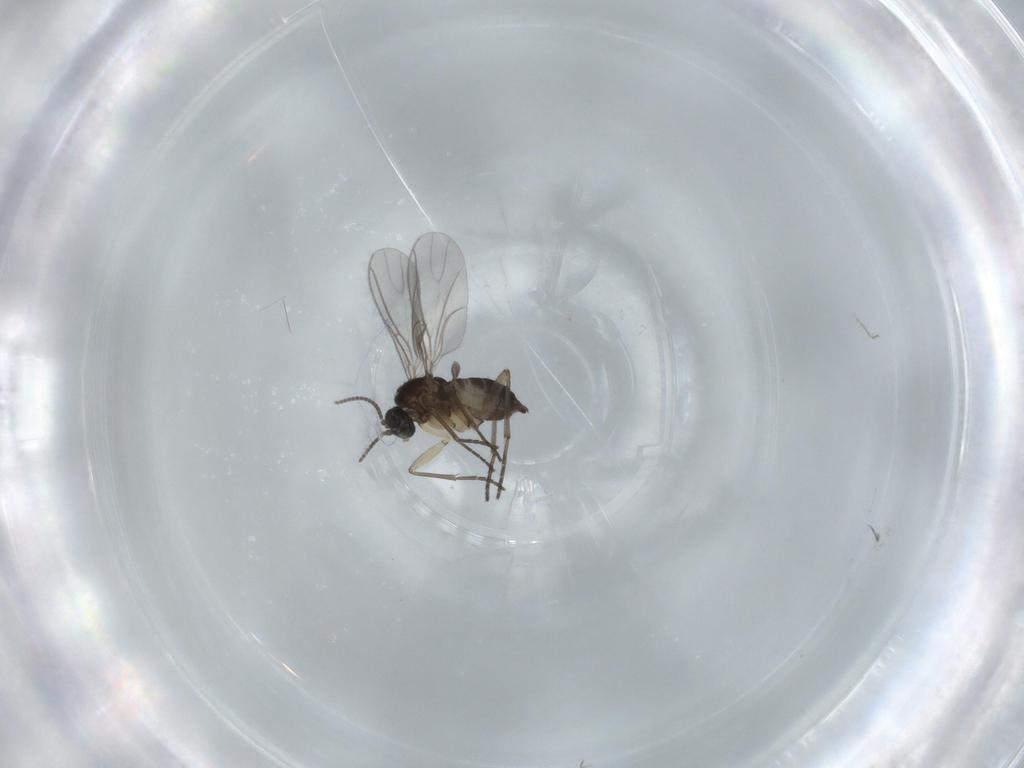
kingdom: Animalia
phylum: Arthropoda
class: Insecta
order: Diptera
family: Sciaridae
